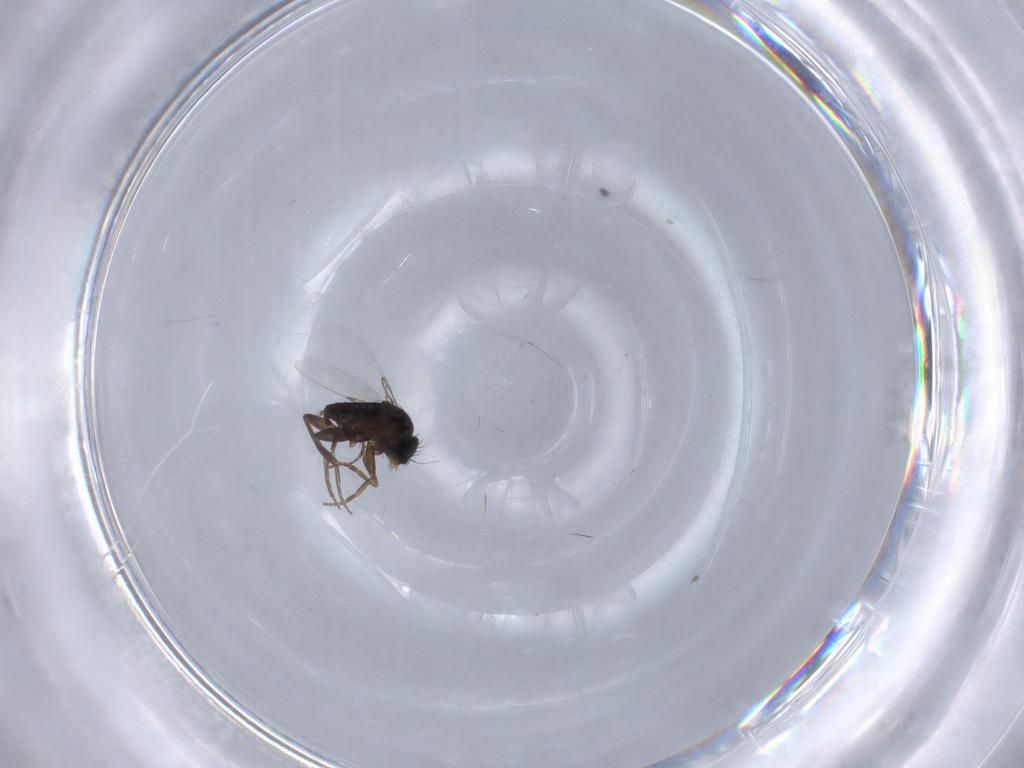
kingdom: Animalia
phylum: Arthropoda
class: Insecta
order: Diptera
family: Phoridae
